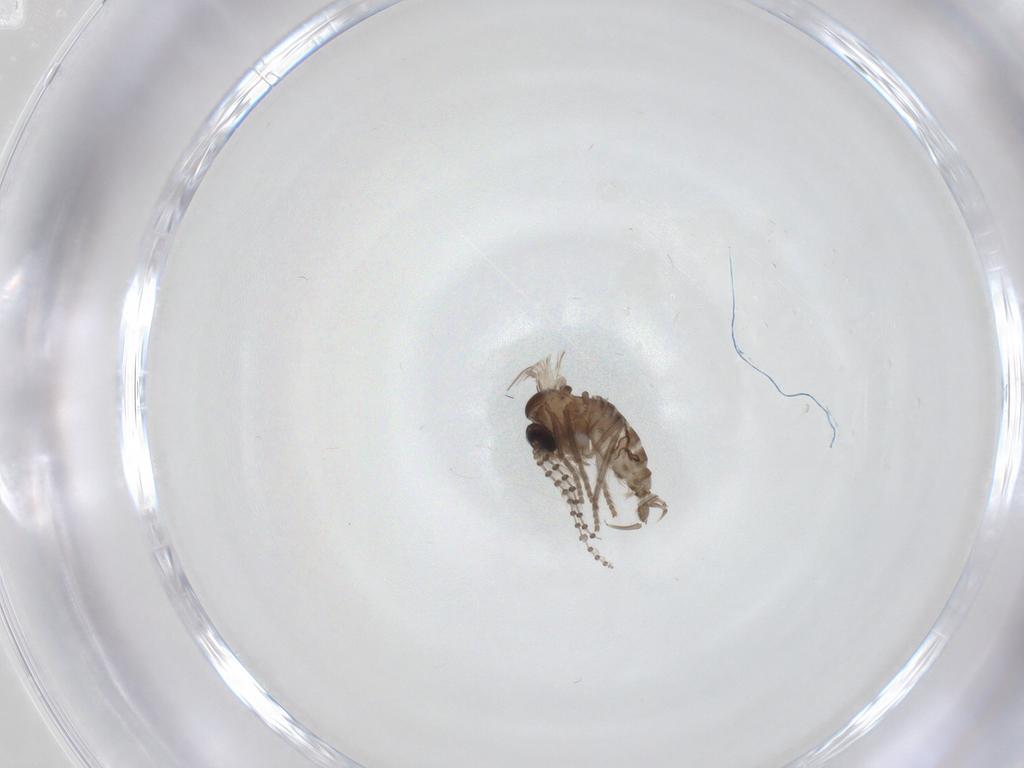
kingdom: Animalia
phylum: Arthropoda
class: Insecta
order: Diptera
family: Psychodidae
